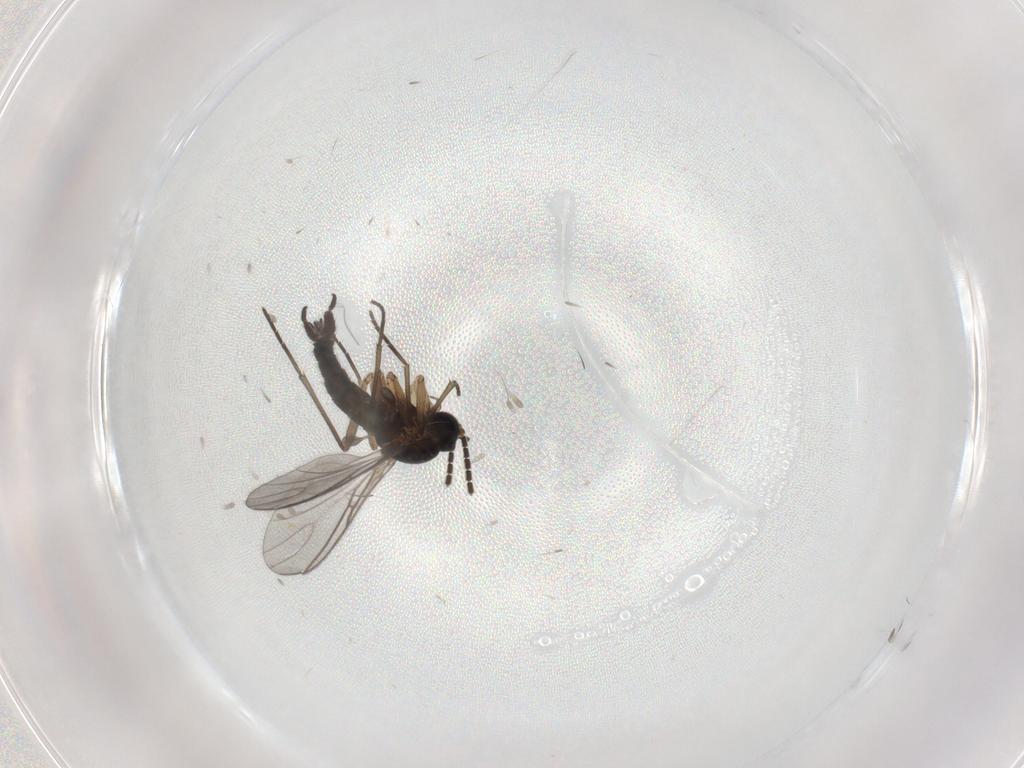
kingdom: Animalia
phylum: Arthropoda
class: Insecta
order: Diptera
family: Sciaridae
